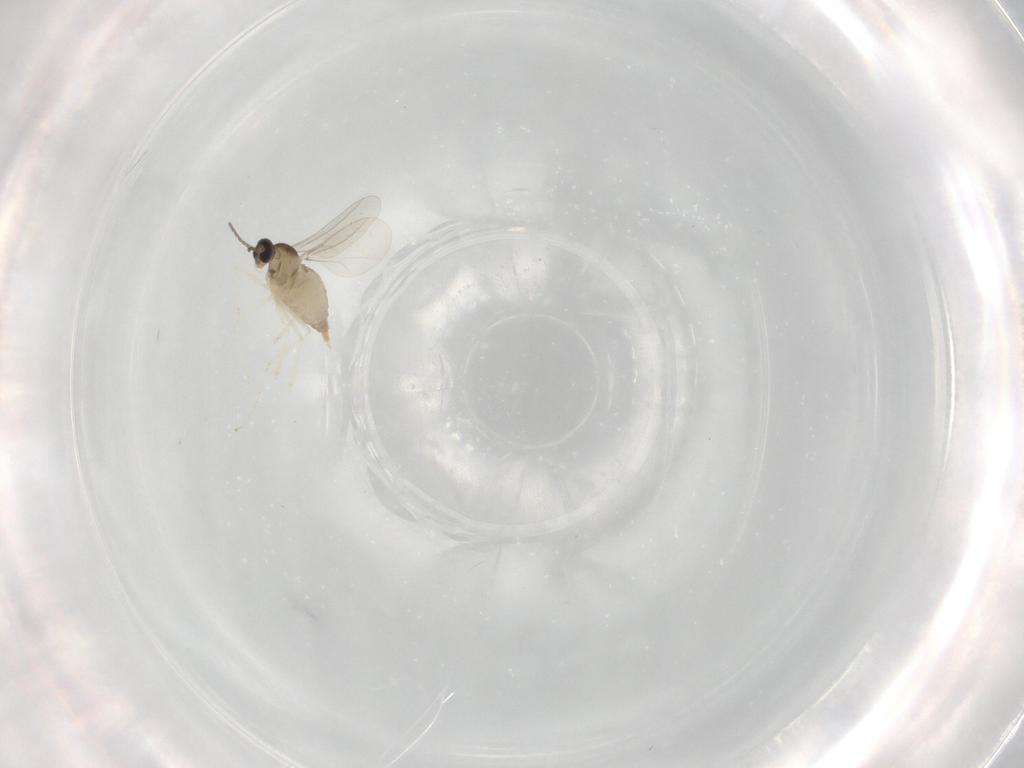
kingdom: Animalia
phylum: Arthropoda
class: Insecta
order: Diptera
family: Cecidomyiidae
